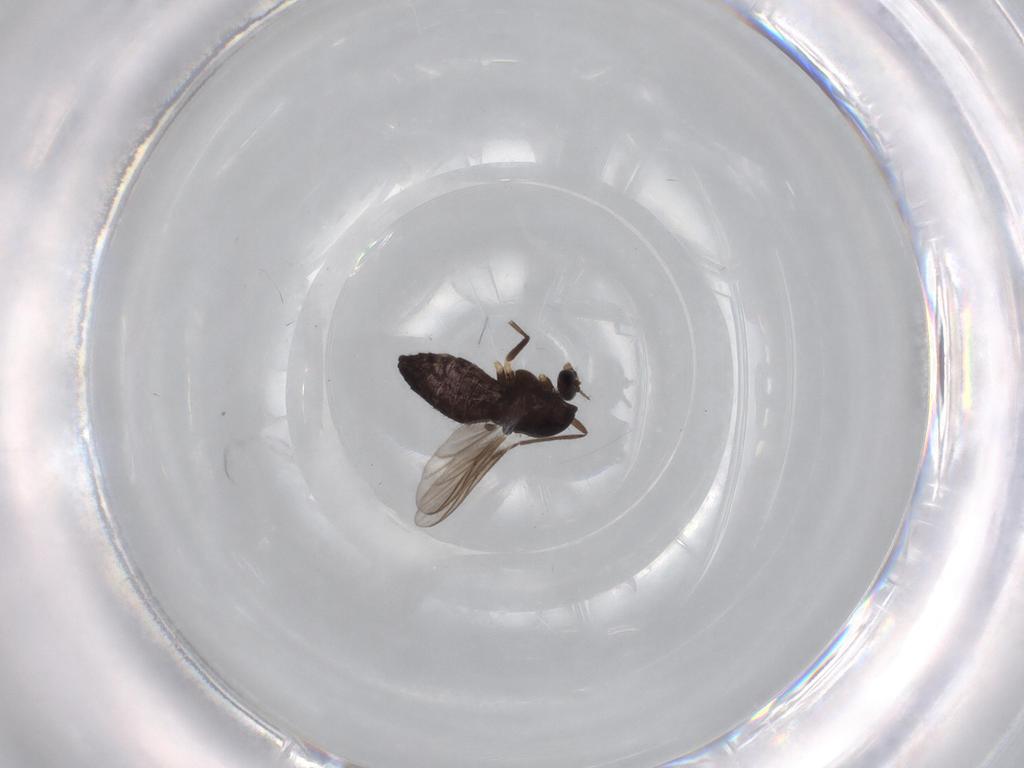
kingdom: Animalia
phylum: Arthropoda
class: Insecta
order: Diptera
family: Chironomidae
